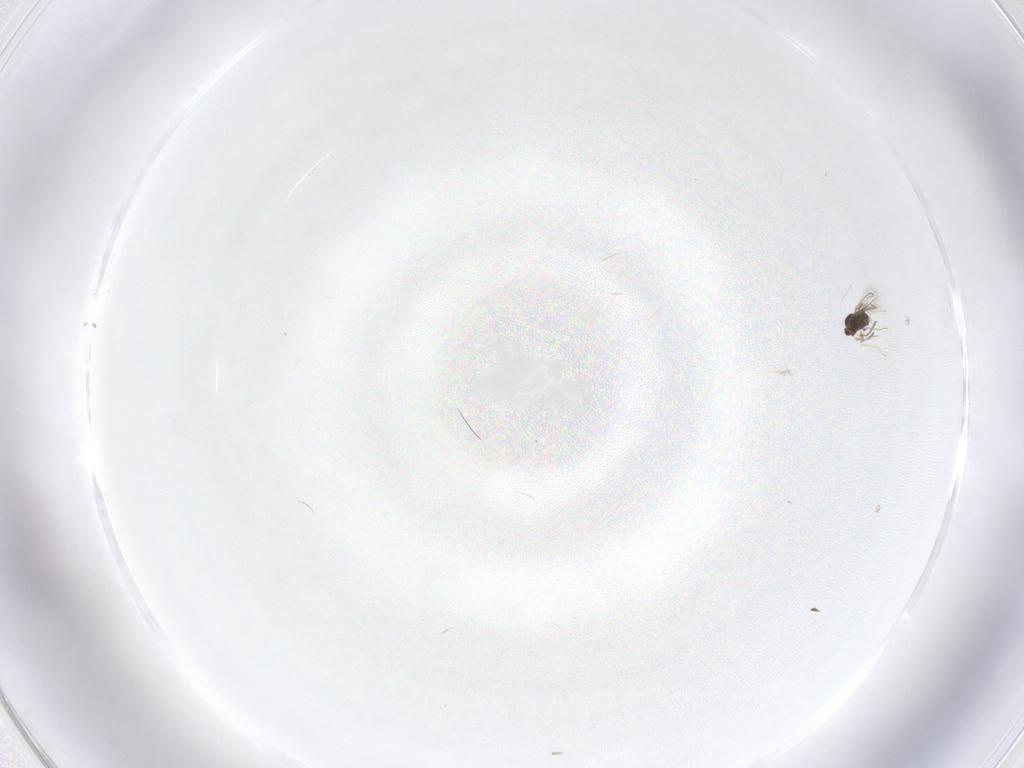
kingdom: Animalia
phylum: Arthropoda
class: Insecta
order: Hymenoptera
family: Mymaridae
